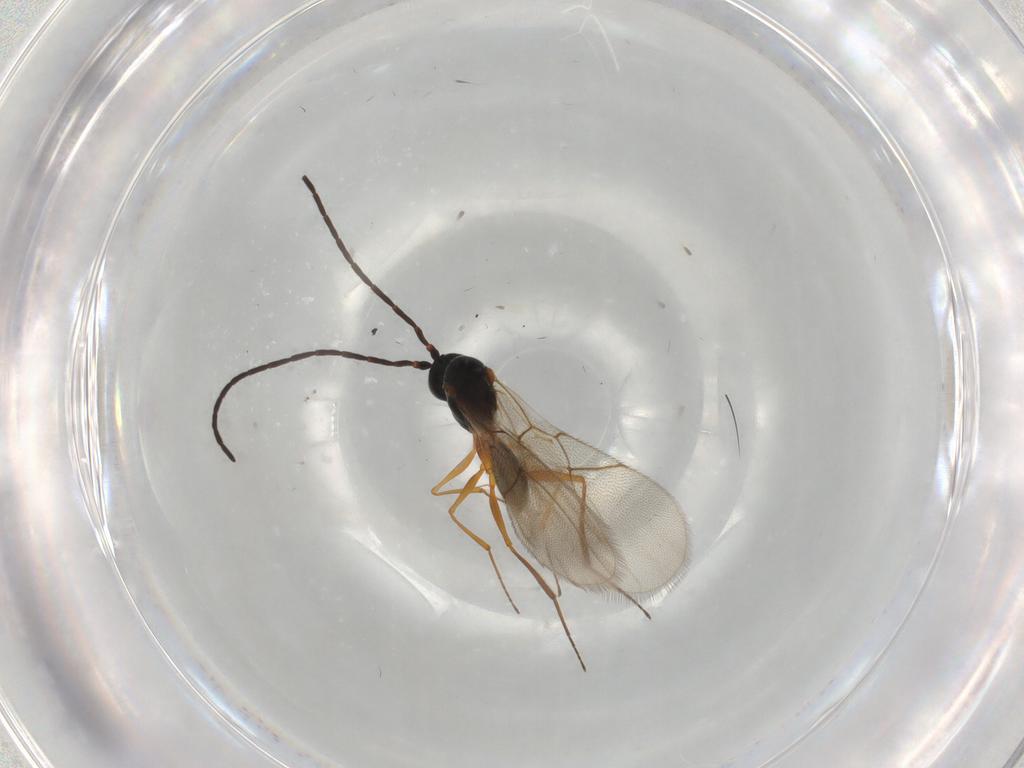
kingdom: Animalia
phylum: Arthropoda
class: Insecta
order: Hymenoptera
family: Figitidae
